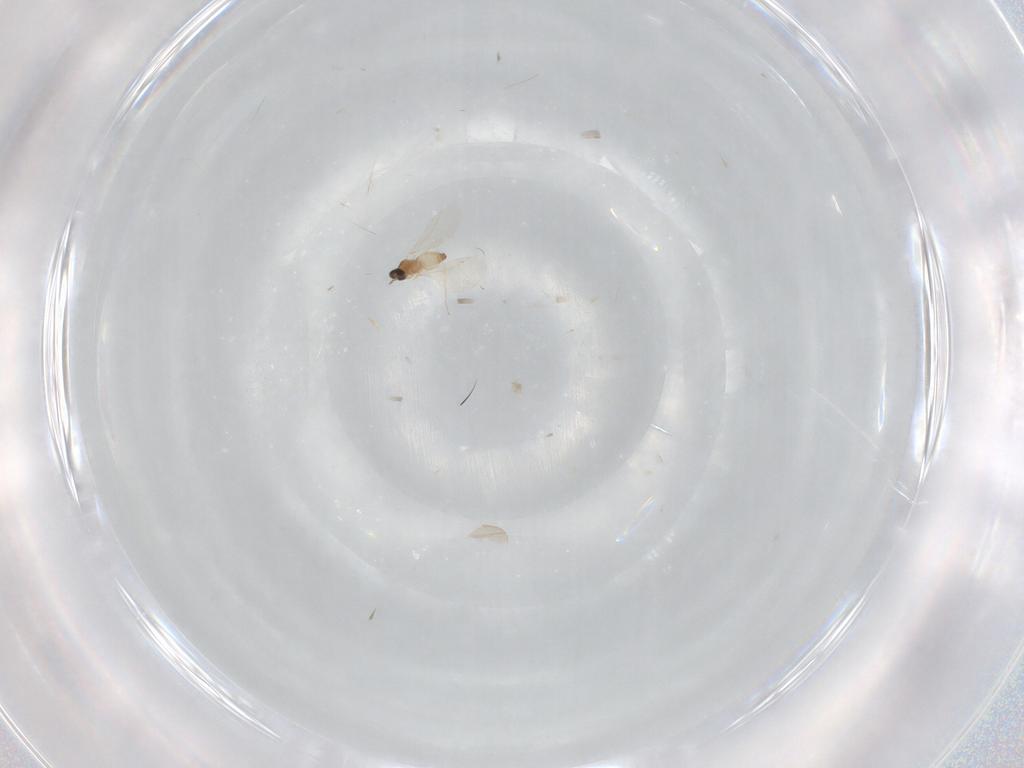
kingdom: Animalia
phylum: Arthropoda
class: Insecta
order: Diptera
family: Cecidomyiidae
